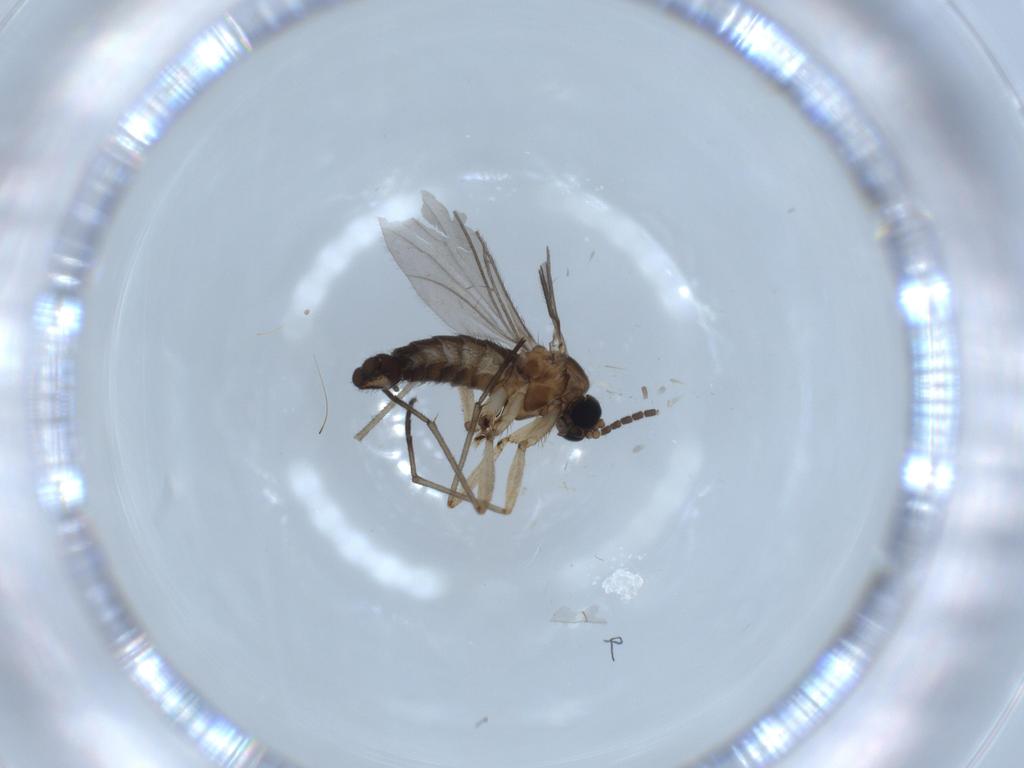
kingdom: Animalia
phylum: Arthropoda
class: Insecta
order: Diptera
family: Sciaridae
